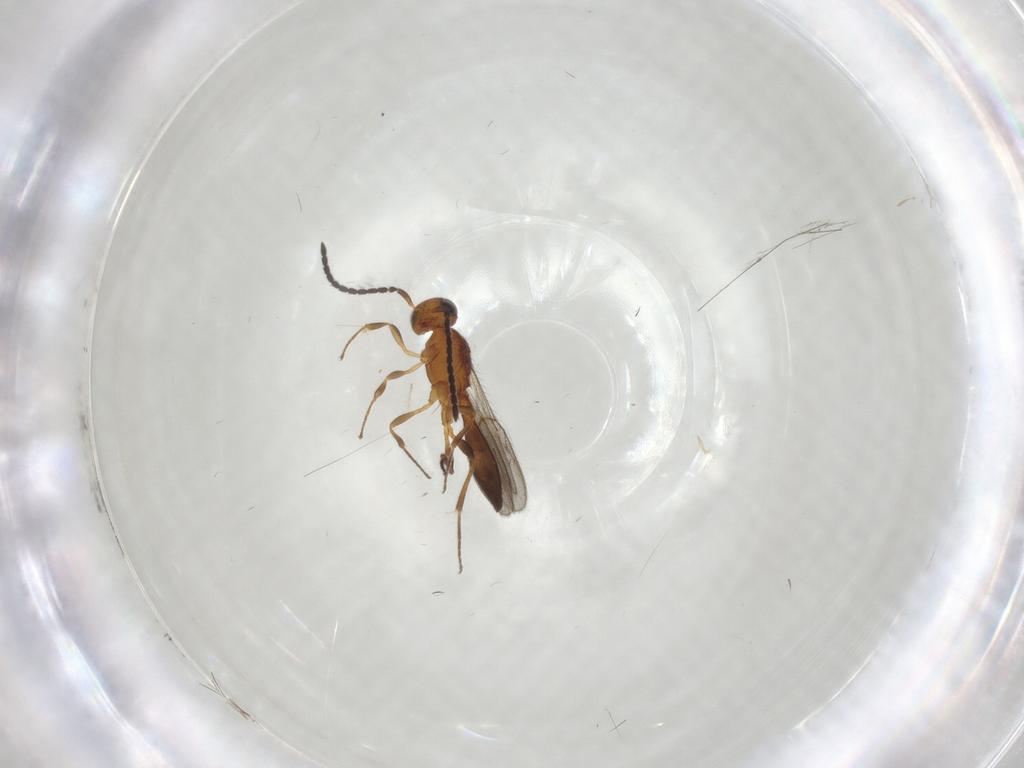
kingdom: Animalia
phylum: Arthropoda
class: Insecta
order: Hymenoptera
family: Scelionidae
